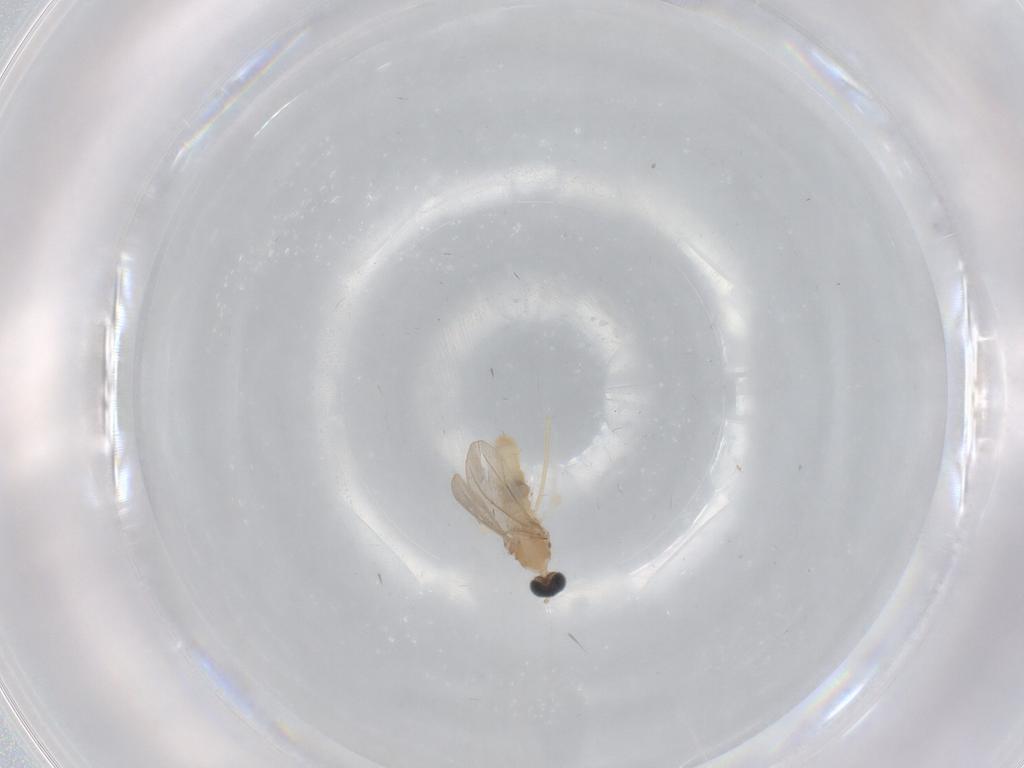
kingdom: Animalia
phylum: Arthropoda
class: Insecta
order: Diptera
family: Cecidomyiidae
